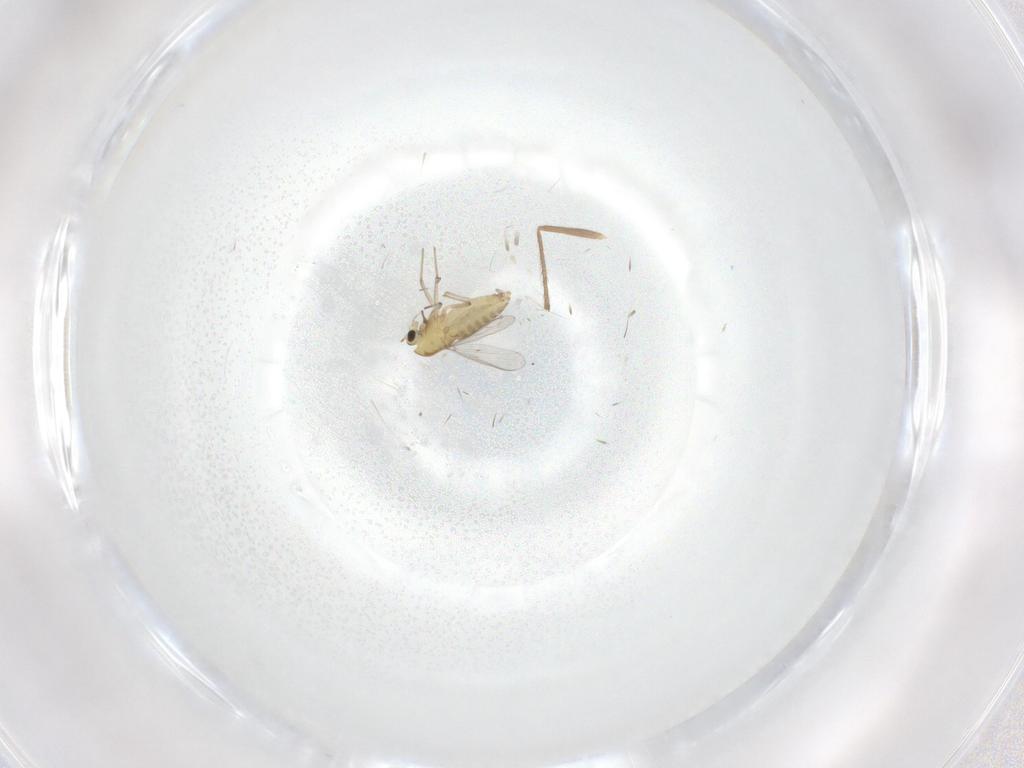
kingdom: Animalia
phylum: Arthropoda
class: Insecta
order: Diptera
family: Chironomidae
